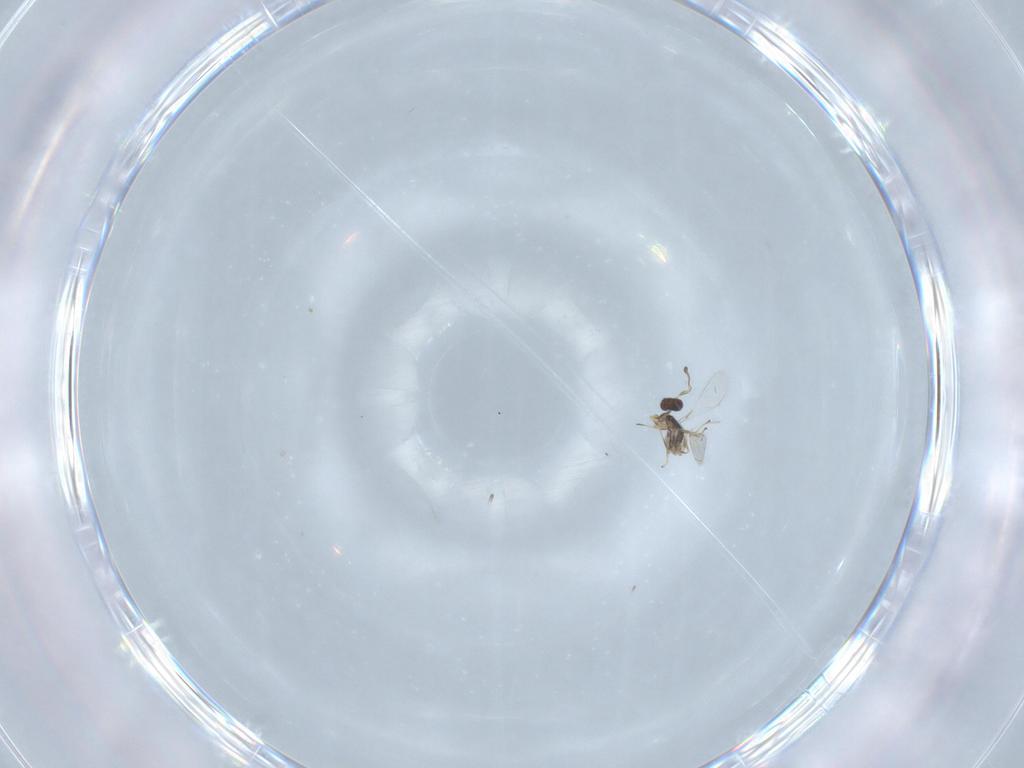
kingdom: Animalia
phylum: Arthropoda
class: Insecta
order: Hymenoptera
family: Mymaridae
